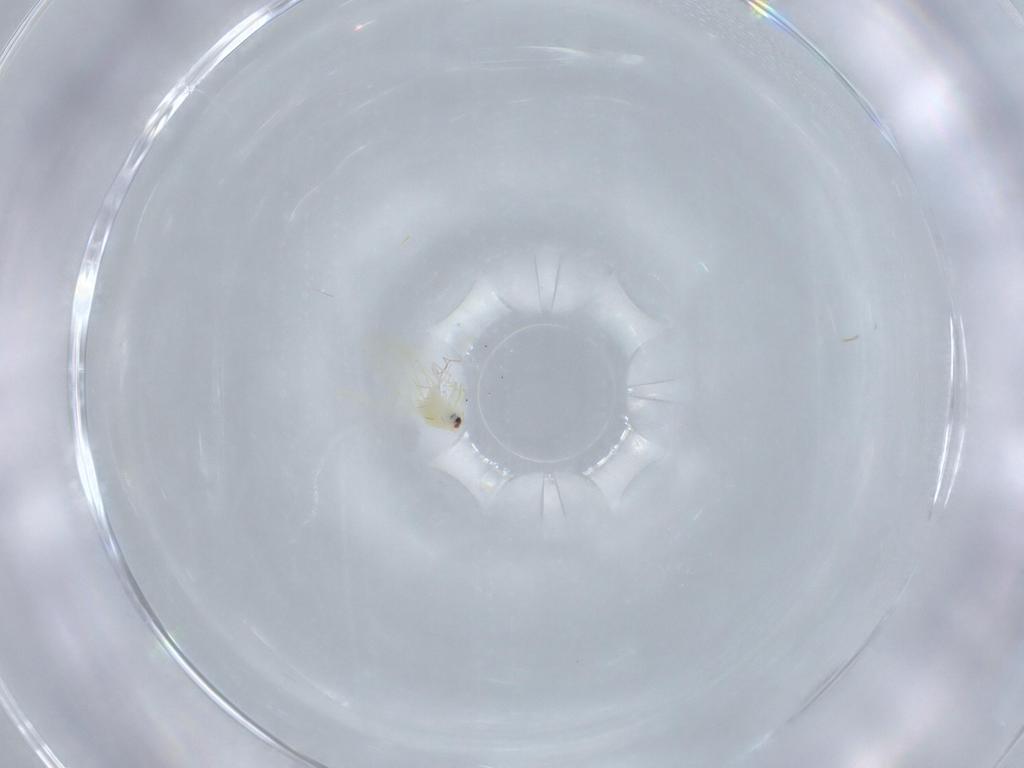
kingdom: Animalia
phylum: Arthropoda
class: Insecta
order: Hemiptera
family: Aleyrodidae
